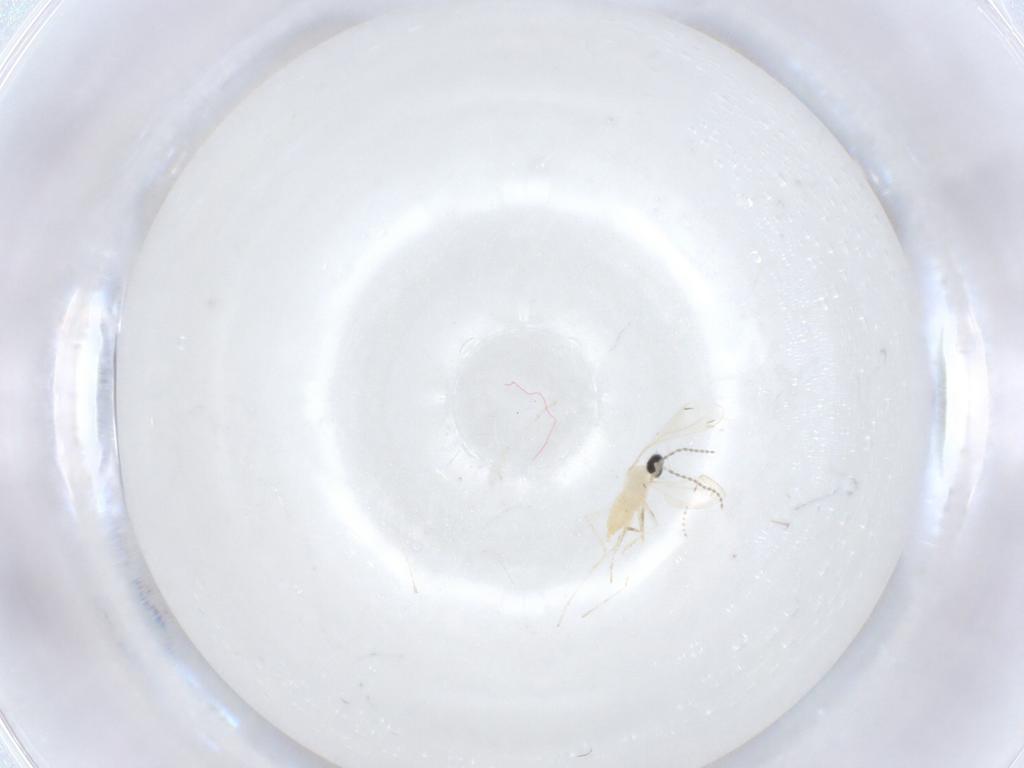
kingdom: Animalia
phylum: Arthropoda
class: Insecta
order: Diptera
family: Cecidomyiidae
